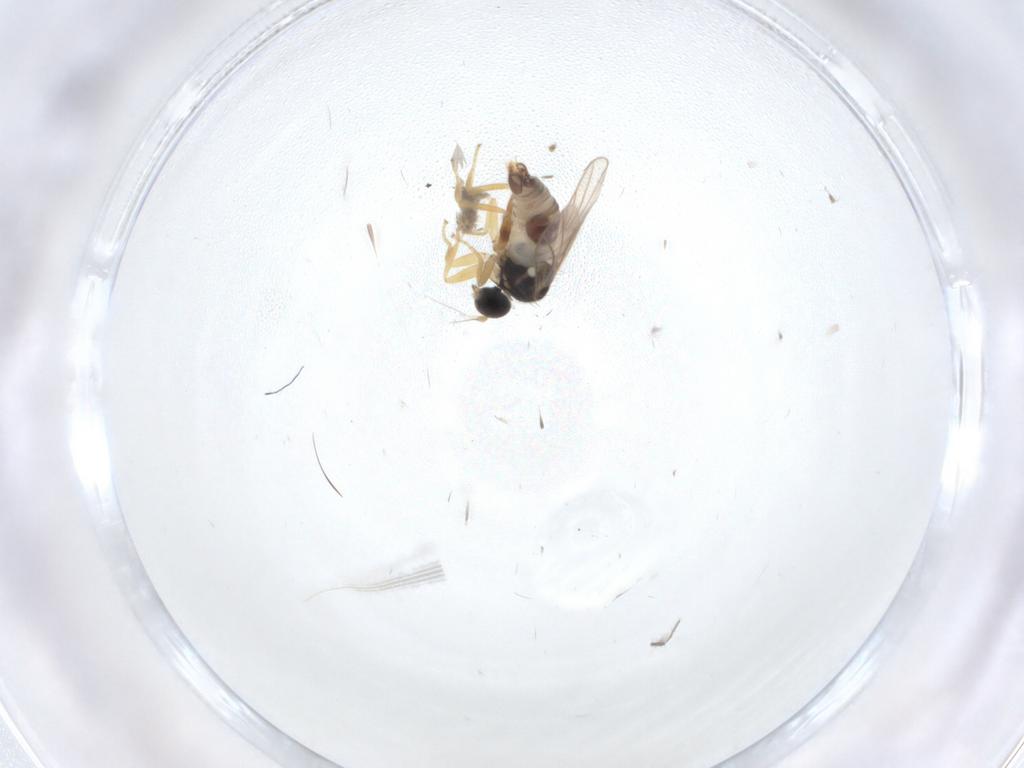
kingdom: Animalia
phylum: Arthropoda
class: Insecta
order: Diptera
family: Hybotidae
